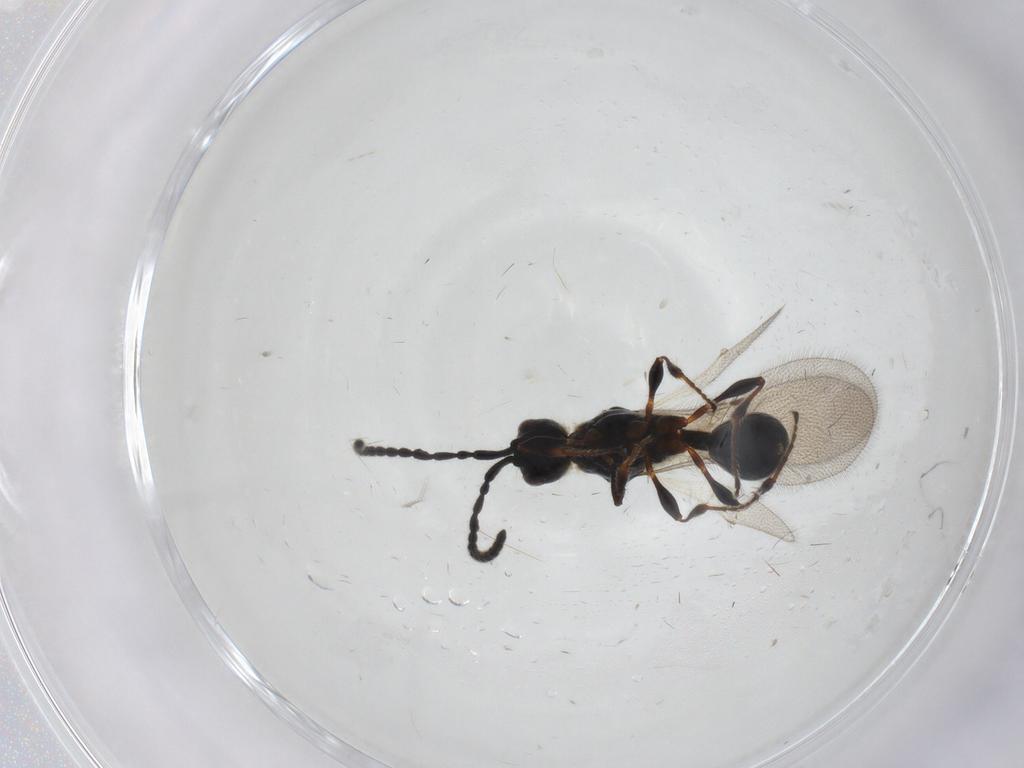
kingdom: Animalia
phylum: Arthropoda
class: Insecta
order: Hymenoptera
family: Diapriidae
